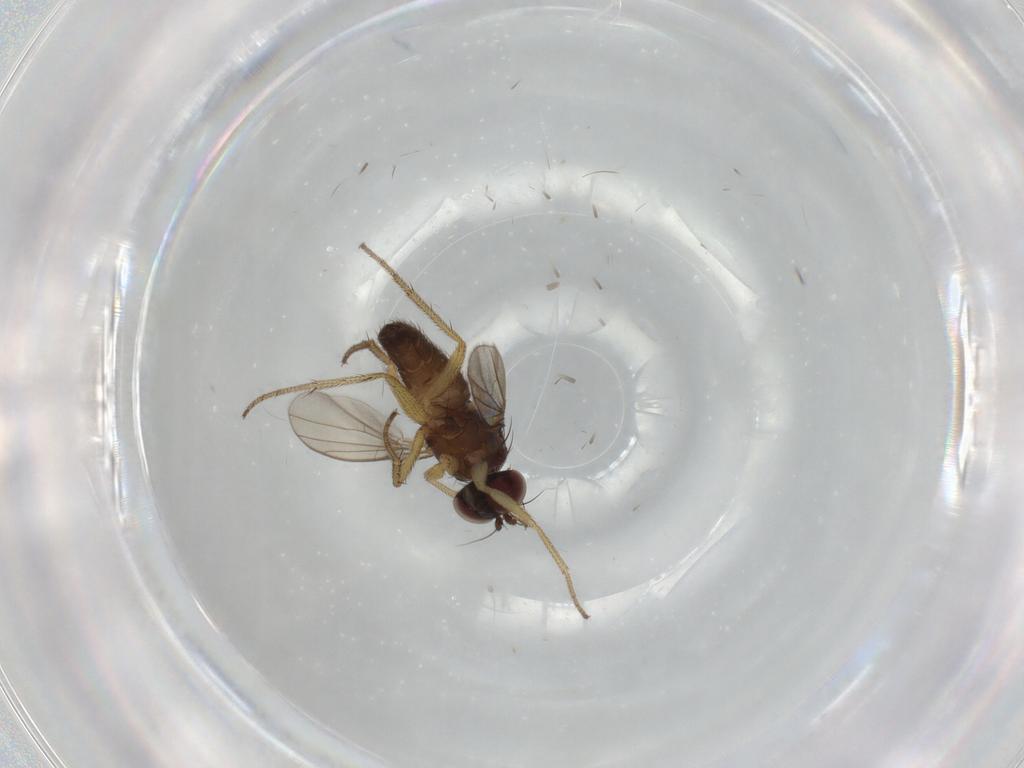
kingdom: Animalia
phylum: Arthropoda
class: Insecta
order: Diptera
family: Dolichopodidae
